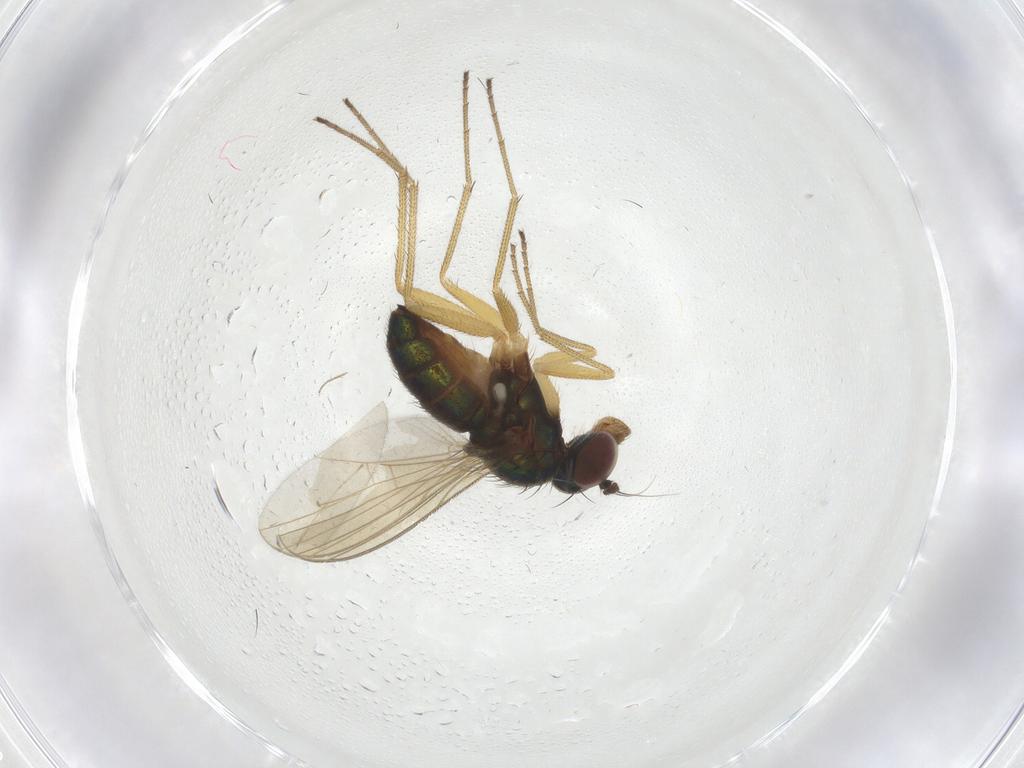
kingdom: Animalia
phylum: Arthropoda
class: Insecta
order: Diptera
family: Dolichopodidae
